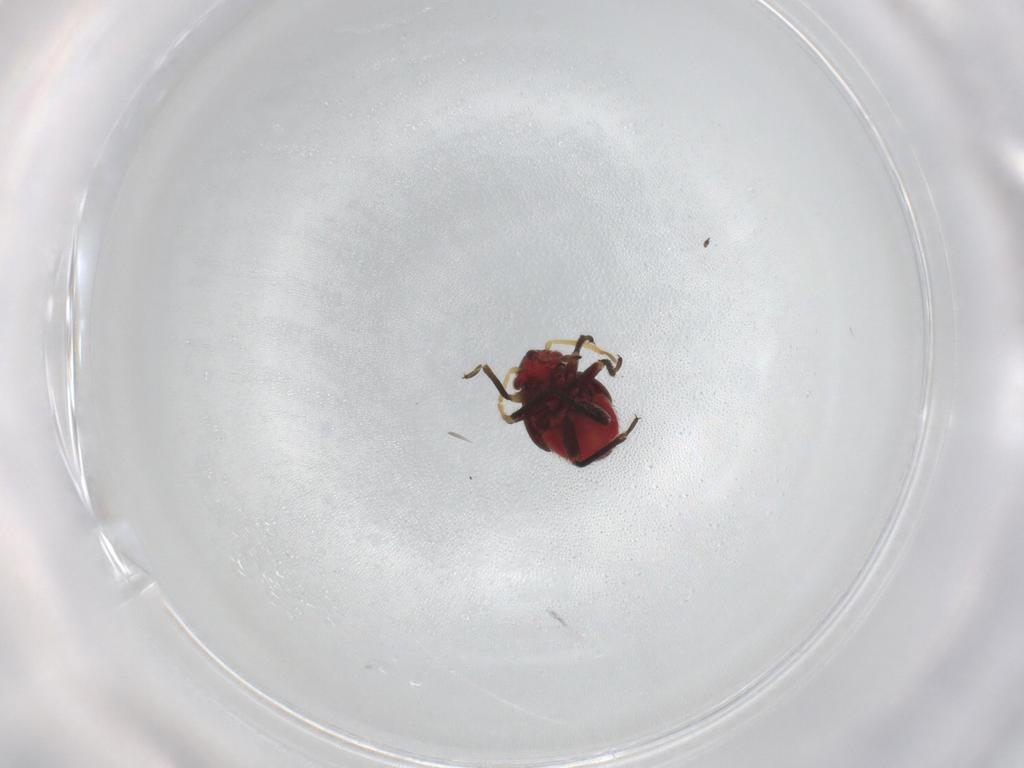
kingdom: Animalia
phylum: Arthropoda
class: Insecta
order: Hemiptera
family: Miridae
